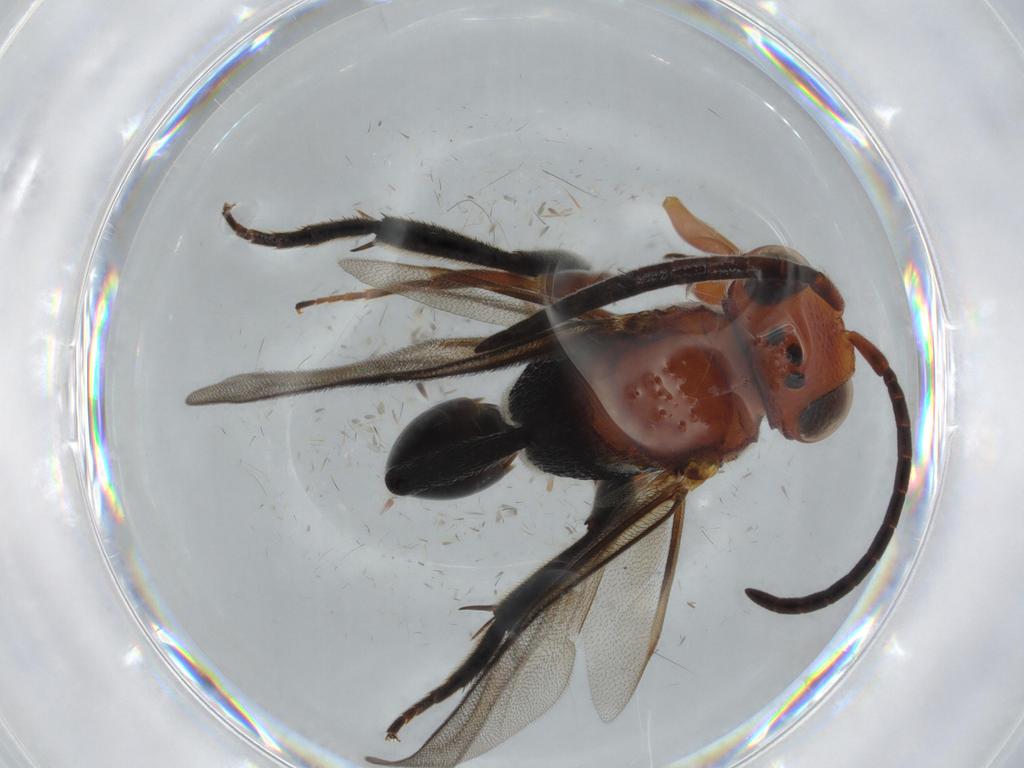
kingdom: Animalia
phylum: Arthropoda
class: Insecta
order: Hymenoptera
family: Evaniidae
